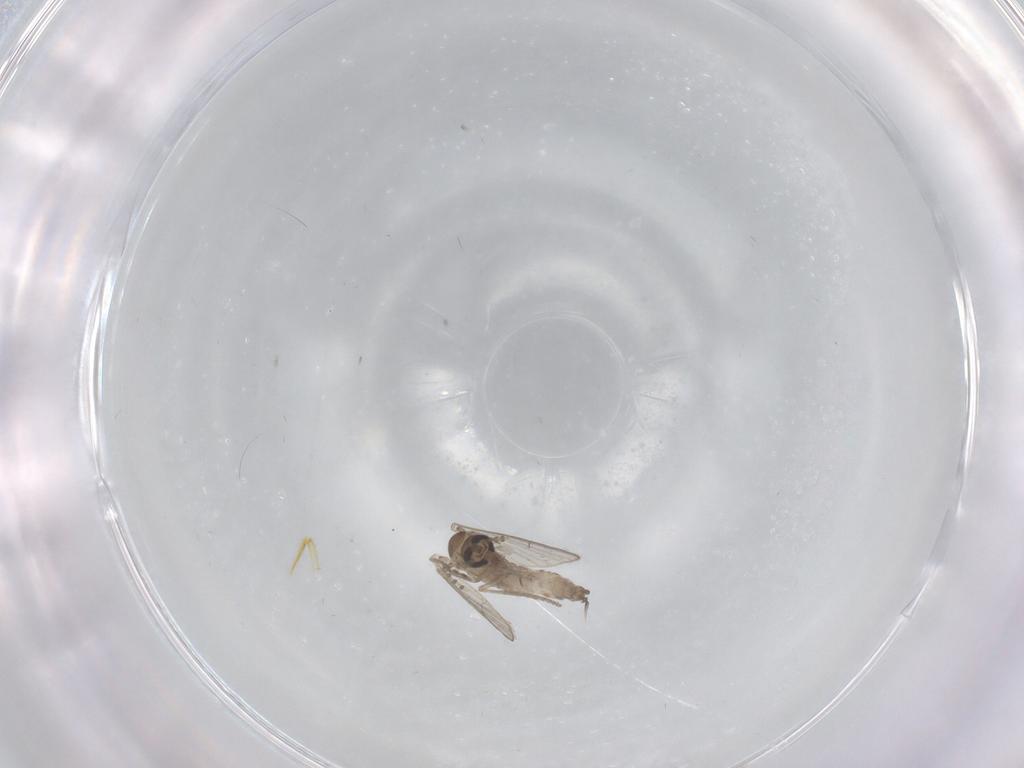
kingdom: Animalia
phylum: Arthropoda
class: Insecta
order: Diptera
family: Psychodidae
